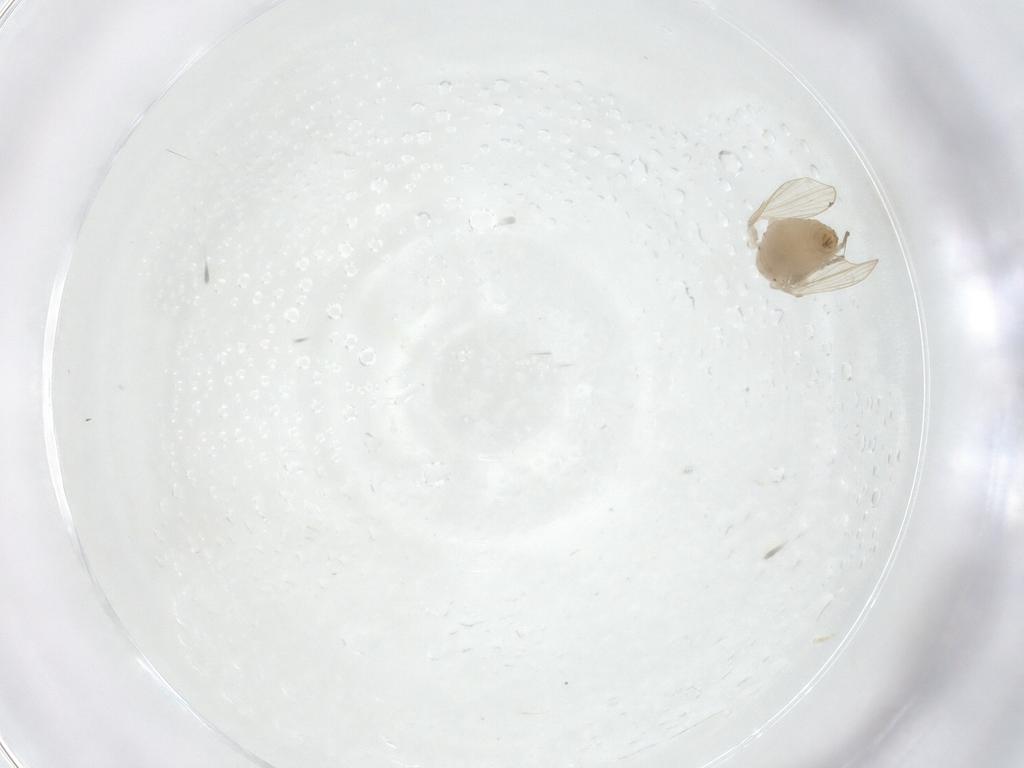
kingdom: Animalia
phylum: Arthropoda
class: Insecta
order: Diptera
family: Psychodidae
